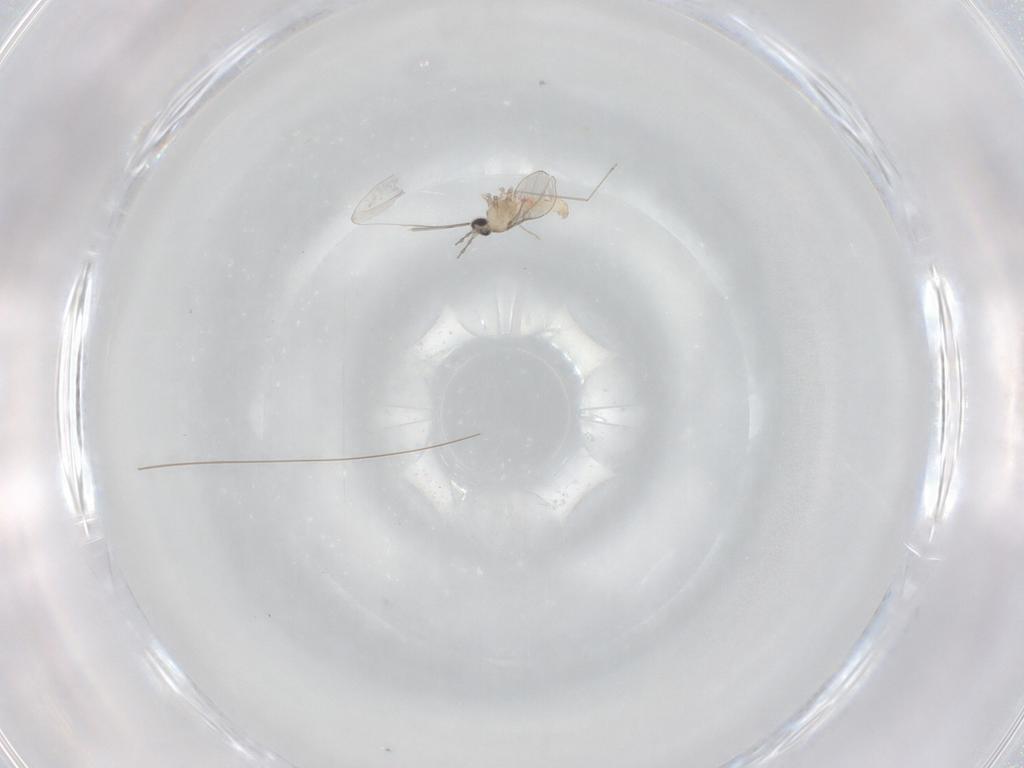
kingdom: Animalia
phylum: Arthropoda
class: Insecta
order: Diptera
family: Cecidomyiidae
